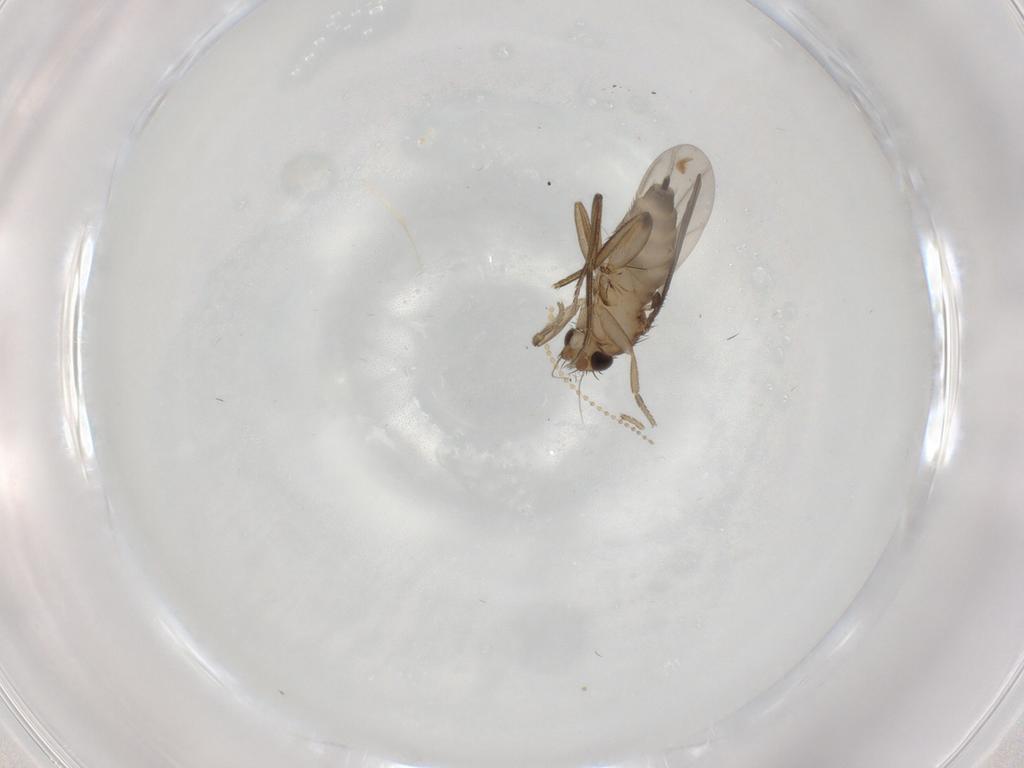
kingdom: Animalia
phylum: Arthropoda
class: Insecta
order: Diptera
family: Phoridae
